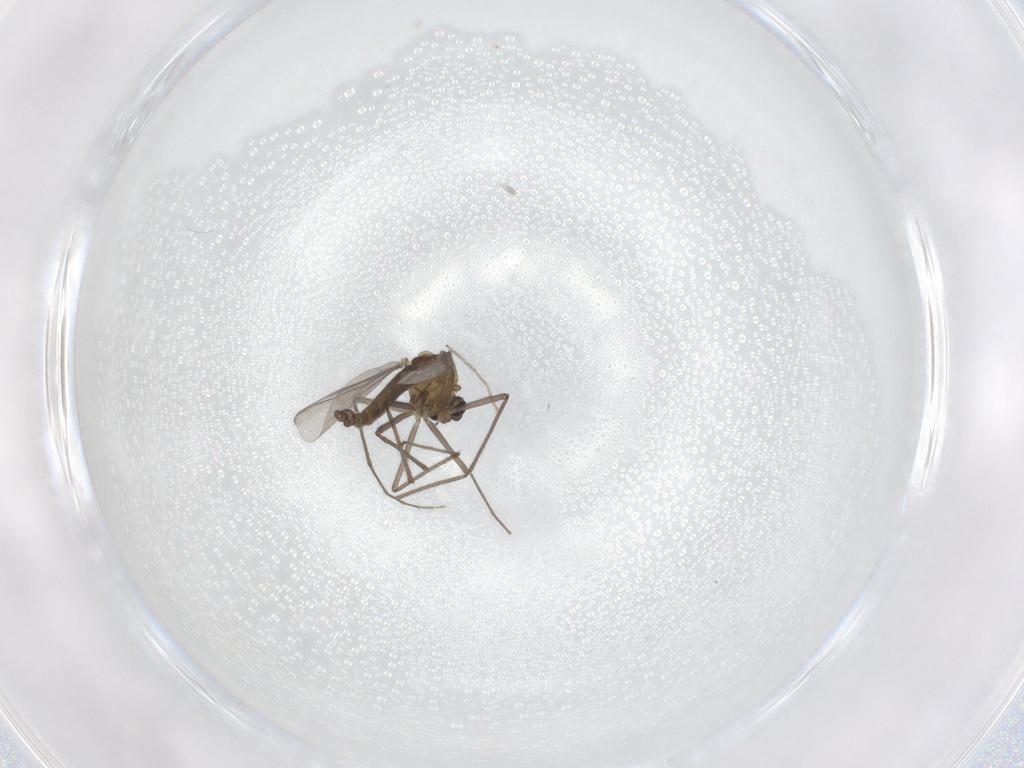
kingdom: Animalia
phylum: Arthropoda
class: Insecta
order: Diptera
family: Chironomidae
